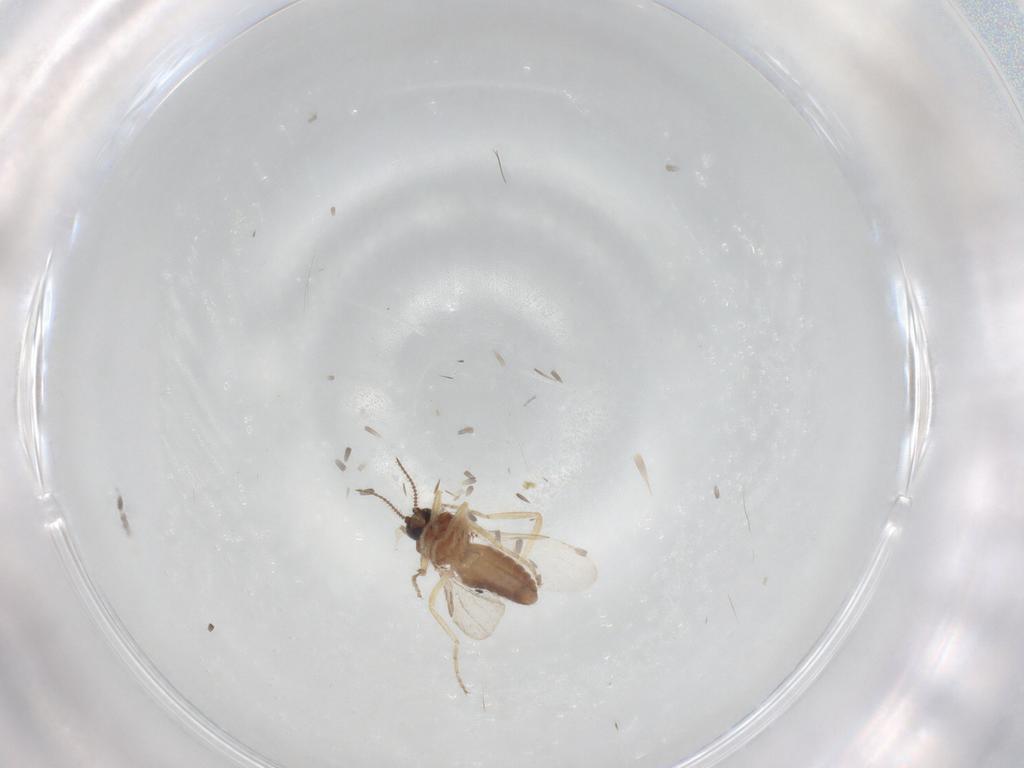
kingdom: Animalia
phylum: Arthropoda
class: Insecta
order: Diptera
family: Ceratopogonidae
